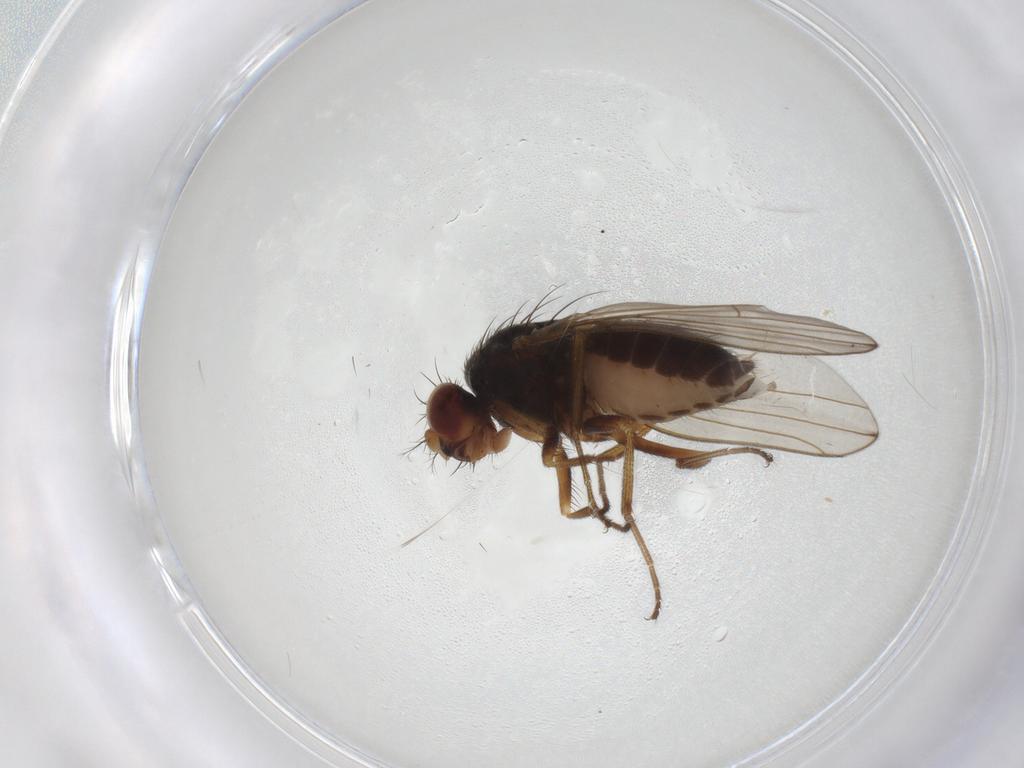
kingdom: Animalia
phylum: Arthropoda
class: Insecta
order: Diptera
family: Drosophilidae
